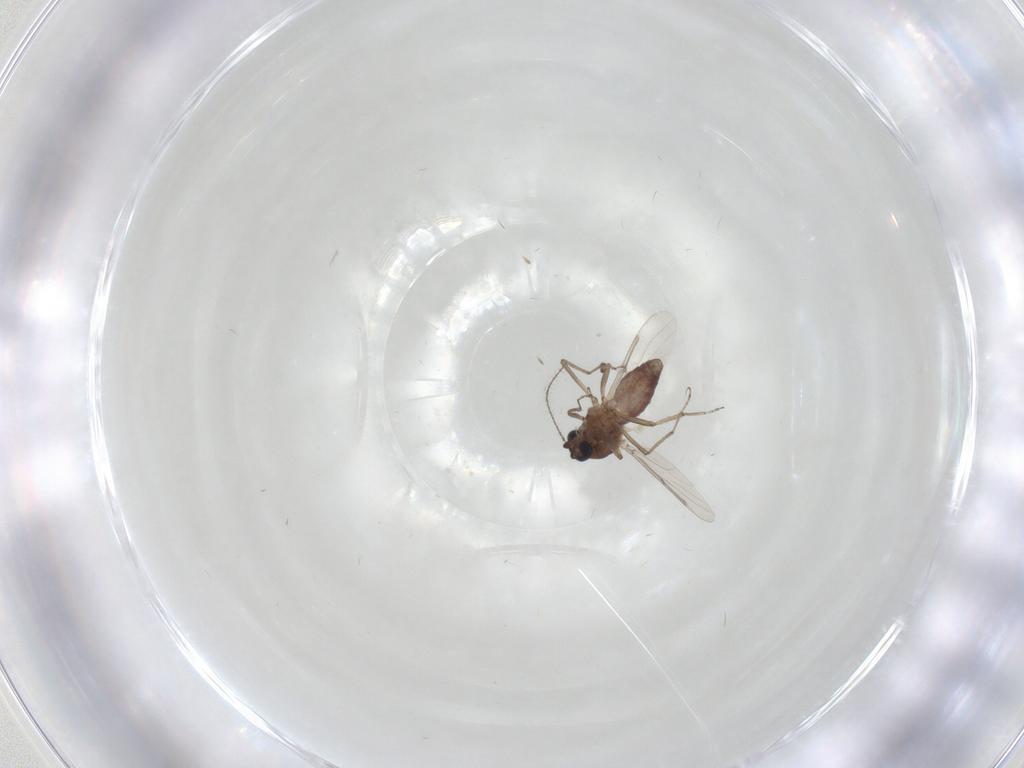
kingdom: Animalia
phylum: Arthropoda
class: Insecta
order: Diptera
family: Ceratopogonidae
